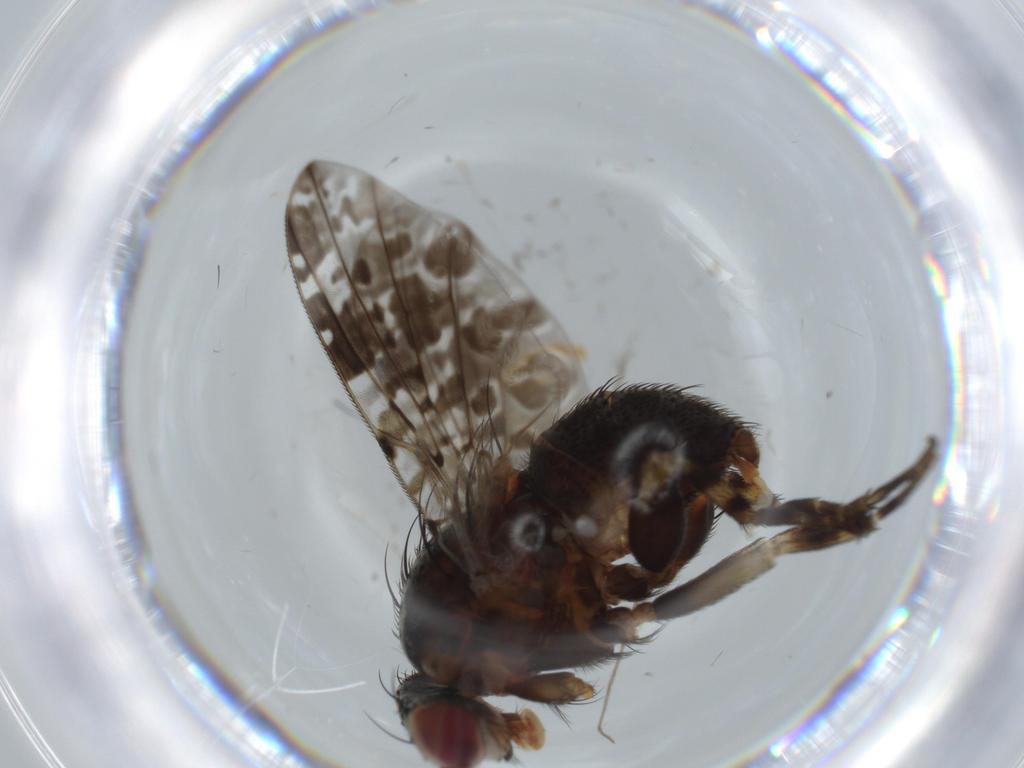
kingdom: Animalia
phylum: Arthropoda
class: Insecta
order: Diptera
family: Odiniidae
